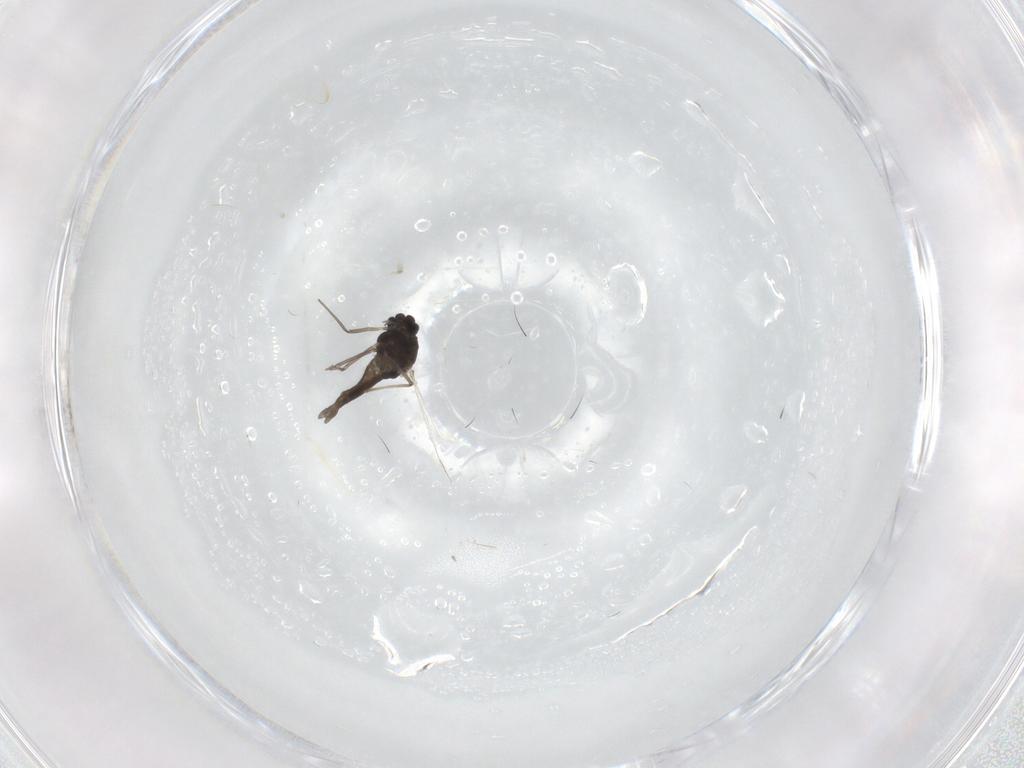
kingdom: Animalia
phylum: Arthropoda
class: Insecta
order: Diptera
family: Chironomidae
